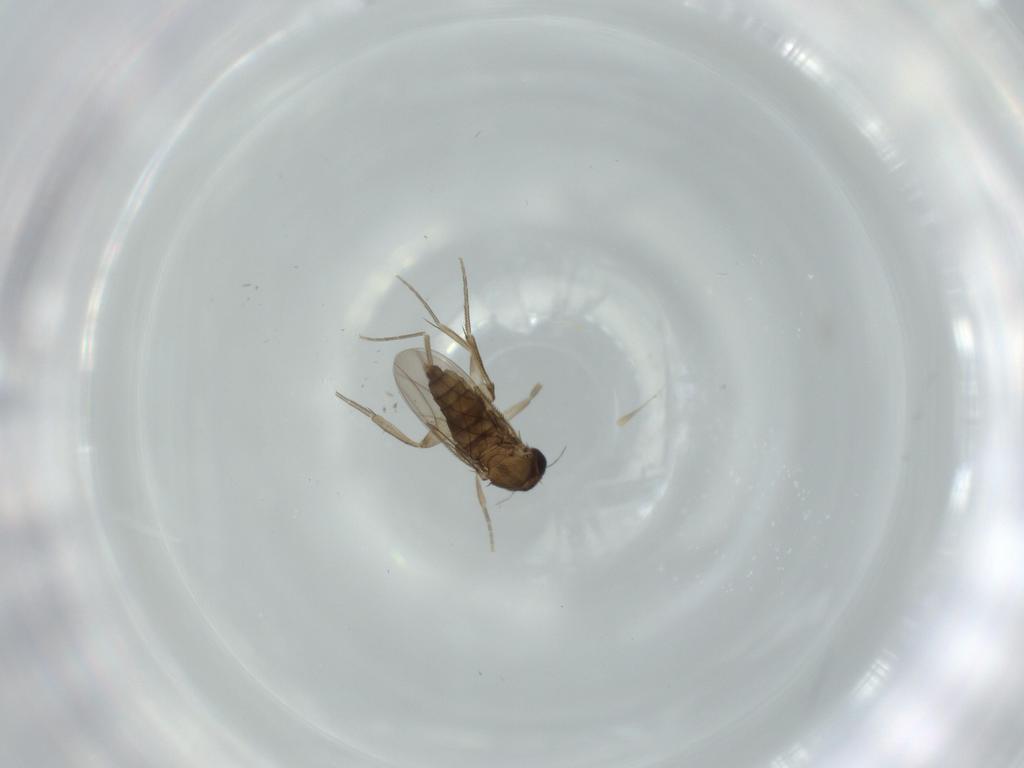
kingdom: Animalia
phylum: Arthropoda
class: Insecta
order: Diptera
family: Phoridae
